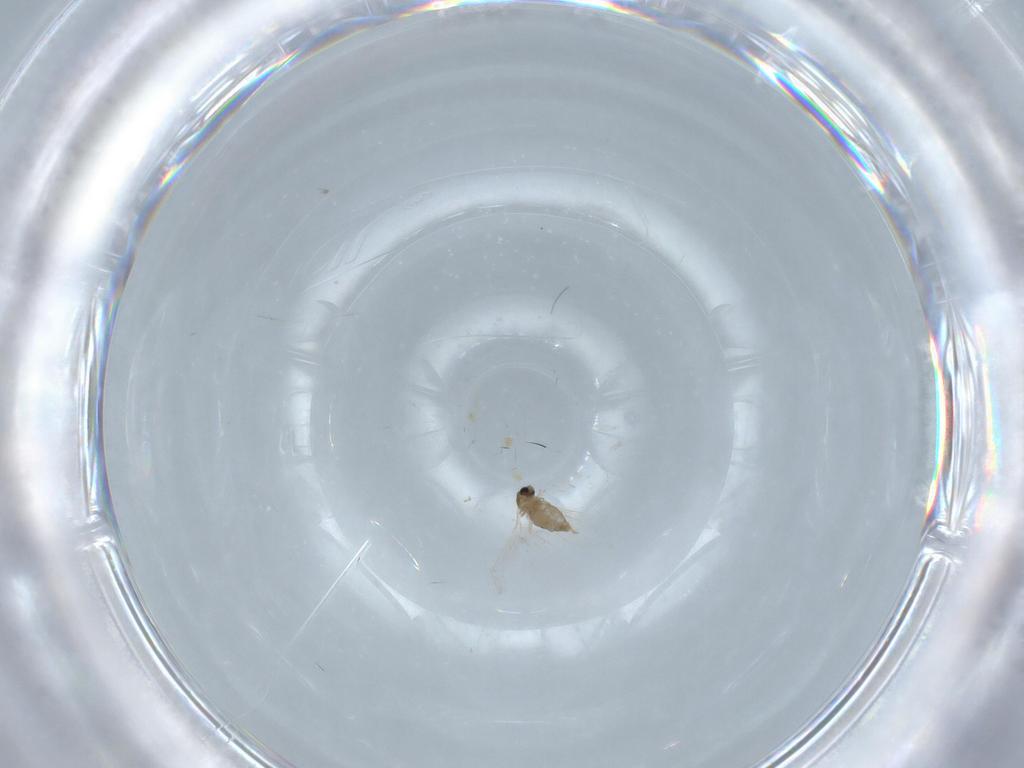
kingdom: Animalia
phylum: Arthropoda
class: Insecta
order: Diptera
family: Cecidomyiidae
